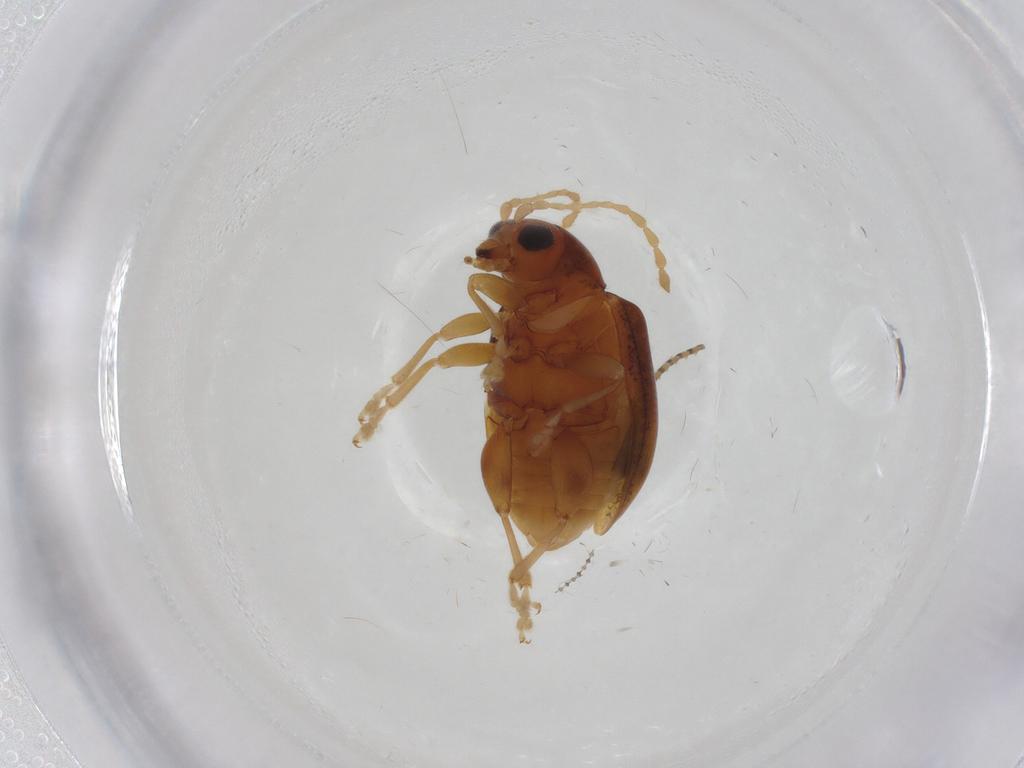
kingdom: Animalia
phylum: Arthropoda
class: Insecta
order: Coleoptera
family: Chrysomelidae
